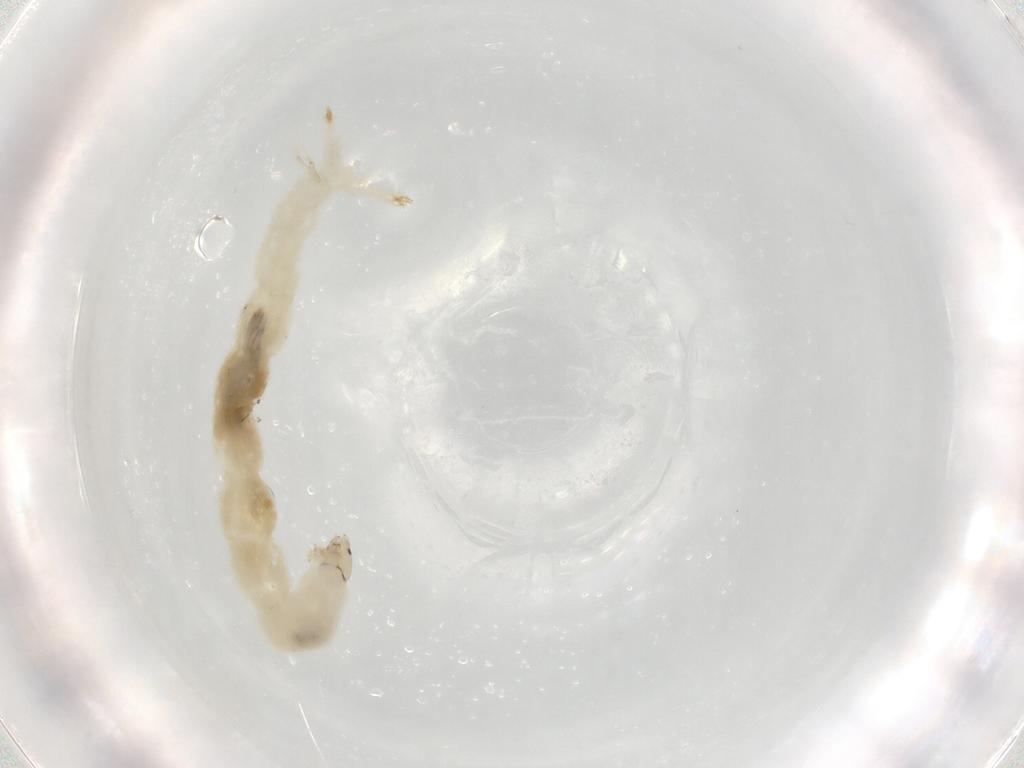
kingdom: Animalia
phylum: Arthropoda
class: Insecta
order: Diptera
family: Chironomidae
